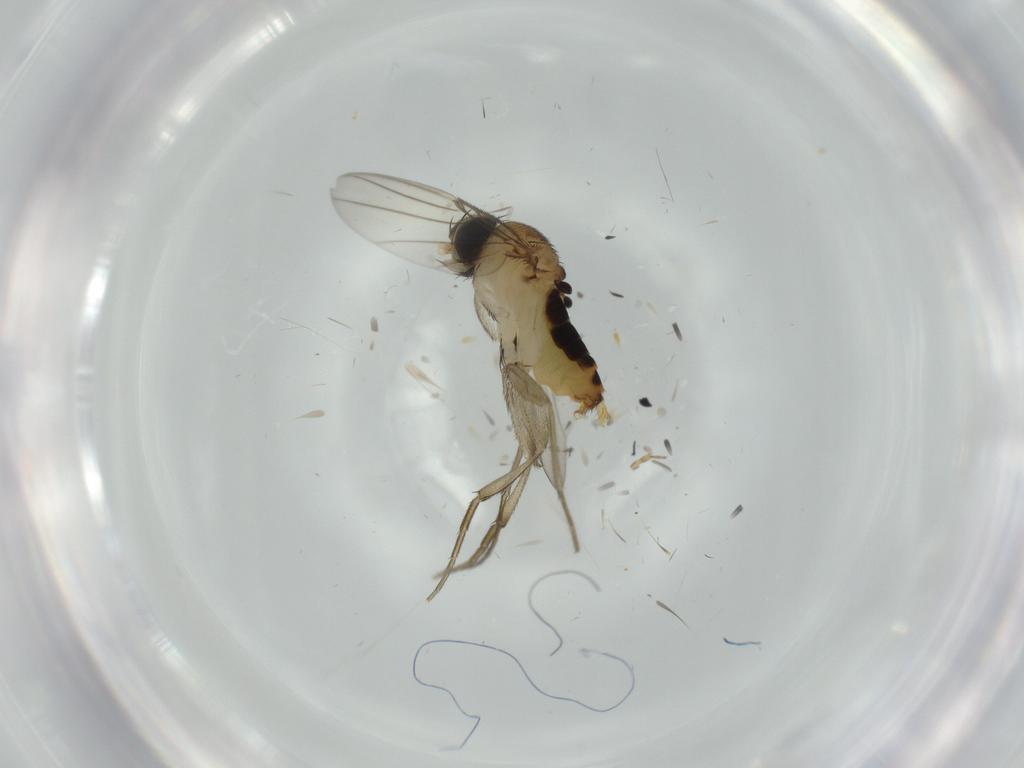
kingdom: Animalia
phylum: Arthropoda
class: Insecta
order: Diptera
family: Phoridae
